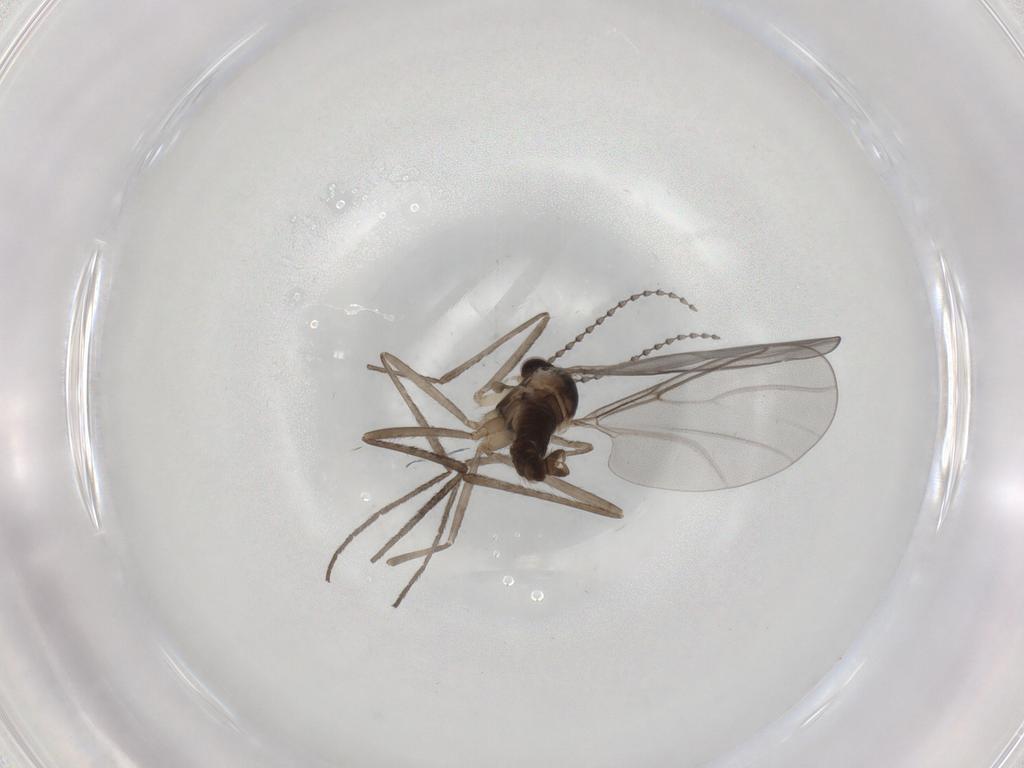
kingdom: Animalia
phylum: Arthropoda
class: Insecta
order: Diptera
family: Cecidomyiidae
